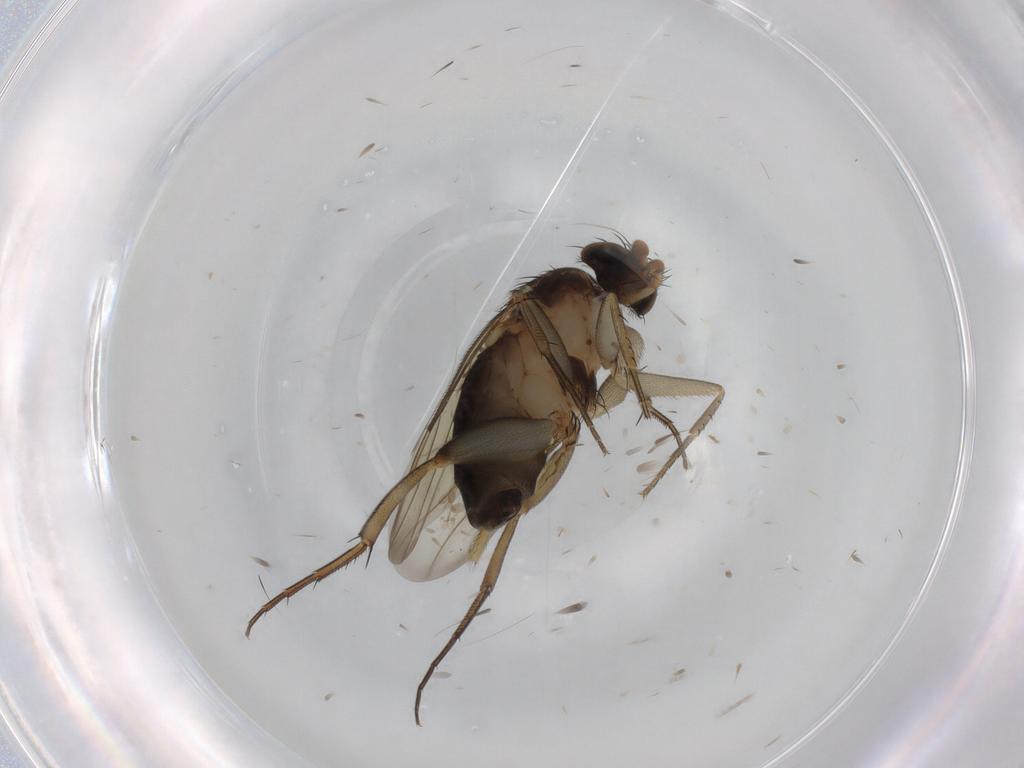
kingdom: Animalia
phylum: Arthropoda
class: Insecta
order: Diptera
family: Phoridae
